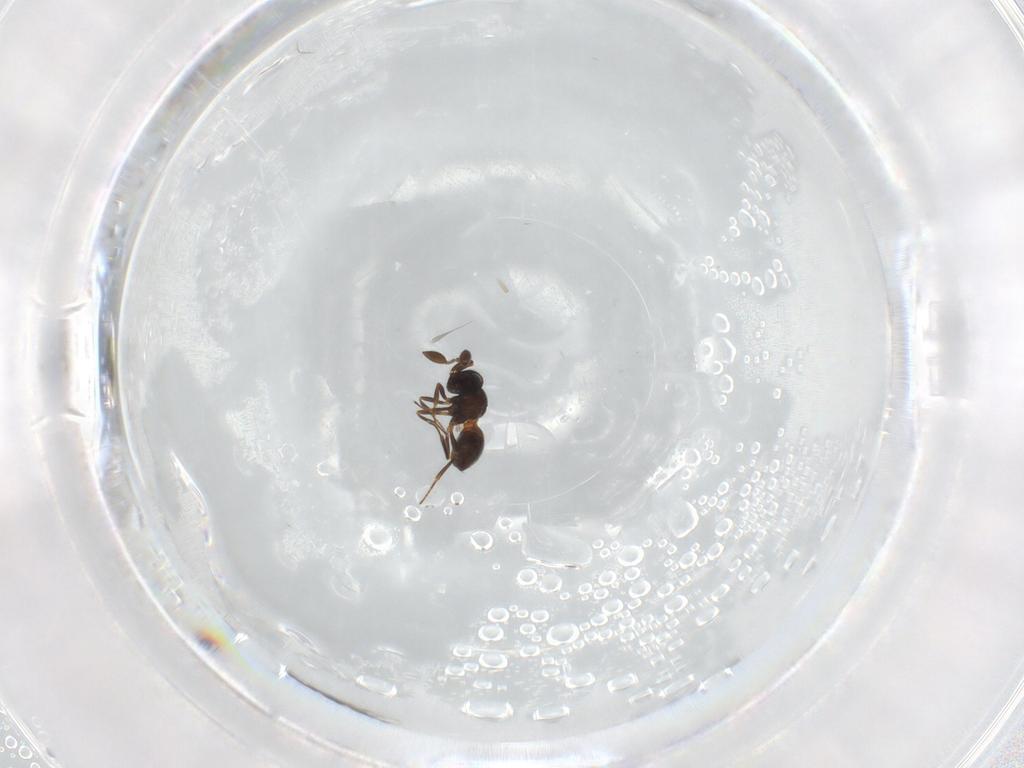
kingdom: Animalia
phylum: Arthropoda
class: Insecta
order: Hymenoptera
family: Scelionidae
